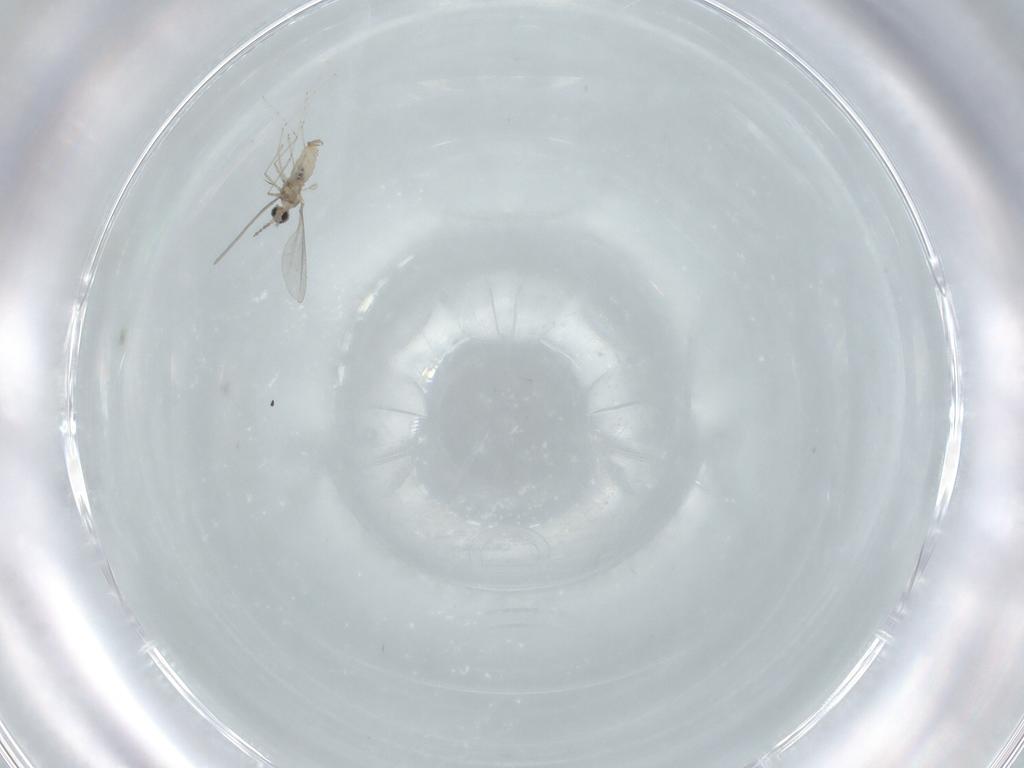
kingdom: Animalia
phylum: Arthropoda
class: Insecta
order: Diptera
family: Cecidomyiidae
